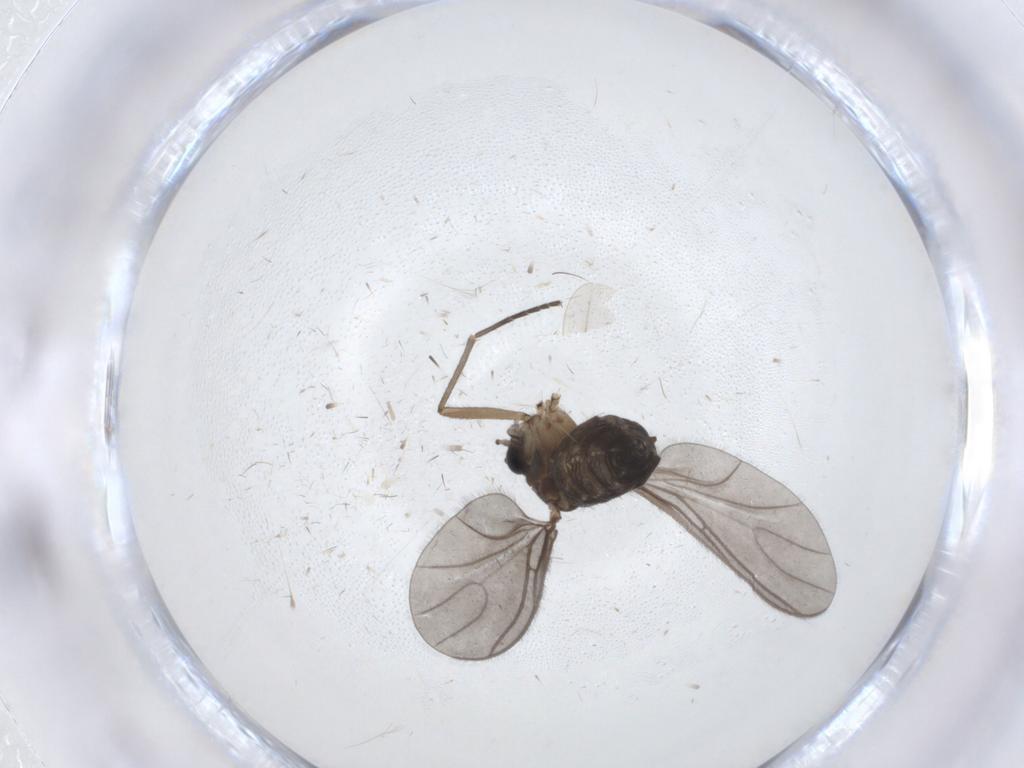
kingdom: Animalia
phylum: Arthropoda
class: Insecta
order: Diptera
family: Sciaridae
